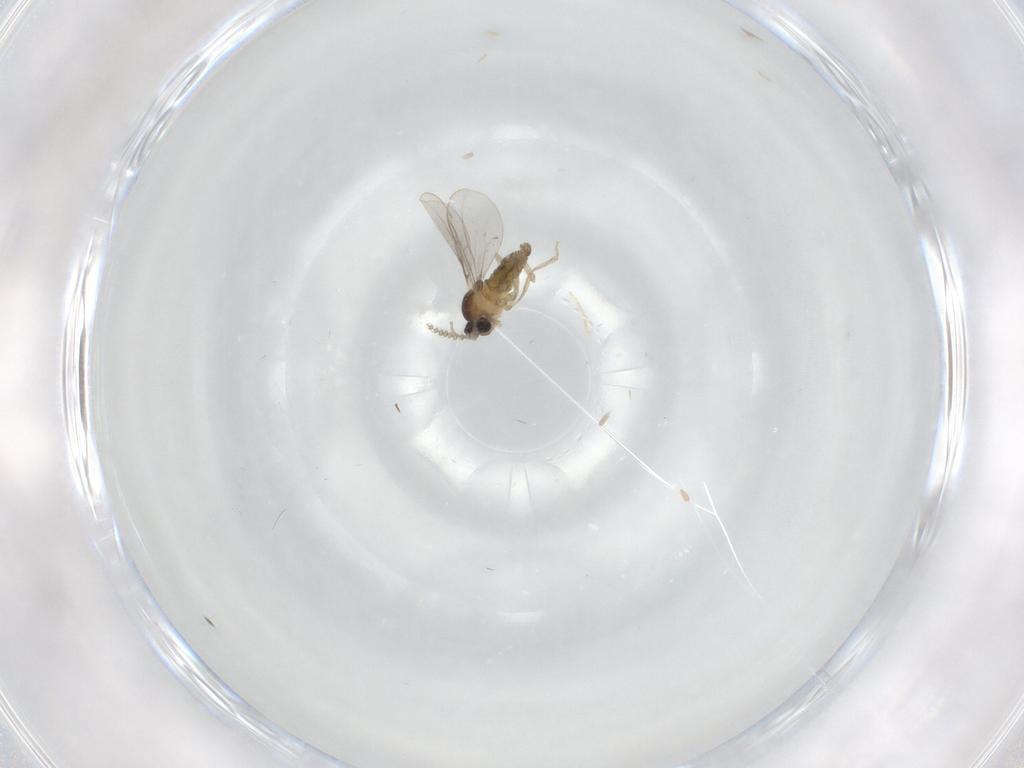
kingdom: Animalia
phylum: Arthropoda
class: Insecta
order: Diptera
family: Cecidomyiidae
